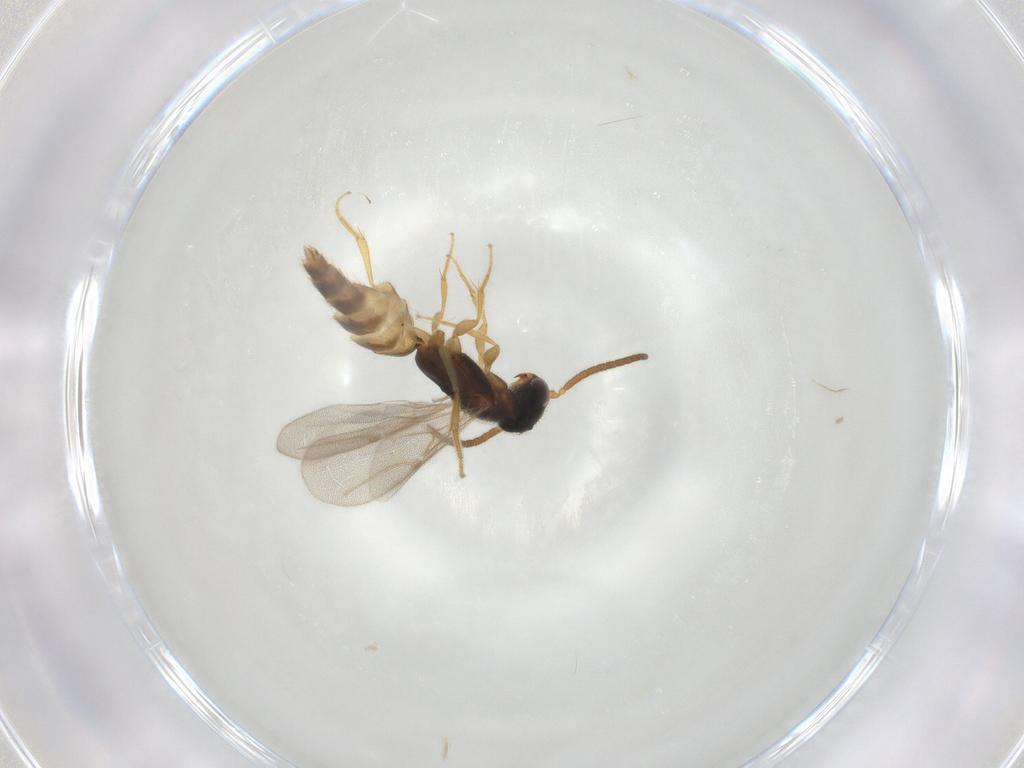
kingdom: Animalia
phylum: Arthropoda
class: Insecta
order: Hymenoptera
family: Bethylidae
